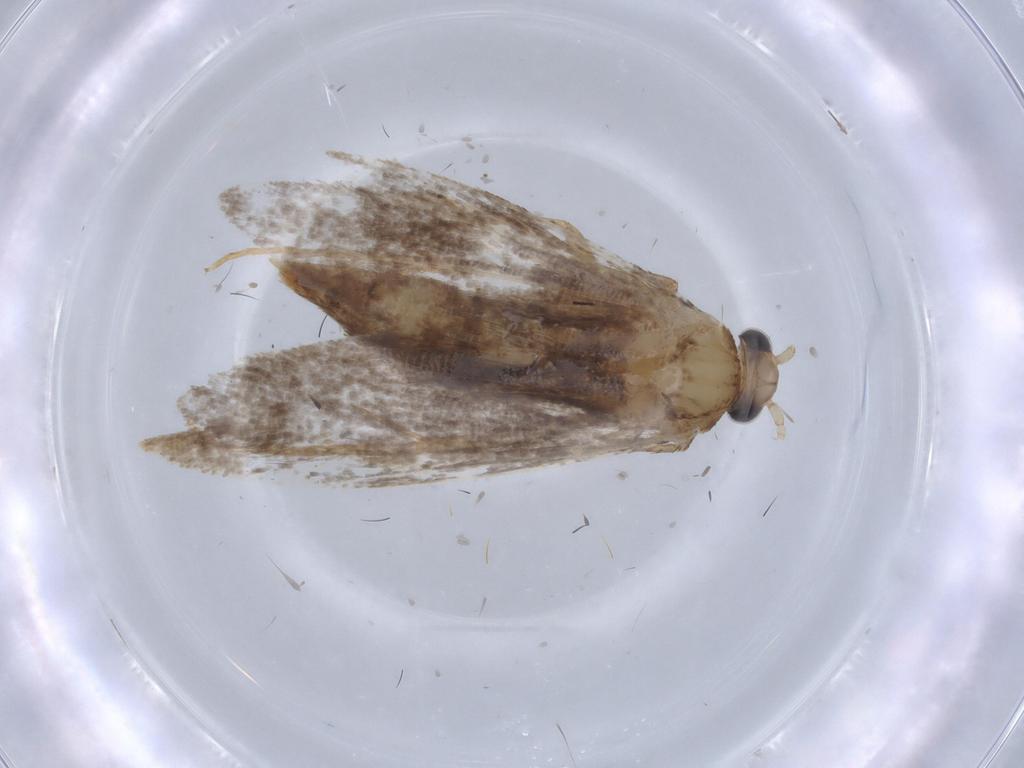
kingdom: Animalia
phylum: Arthropoda
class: Insecta
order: Lepidoptera
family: Tineidae
